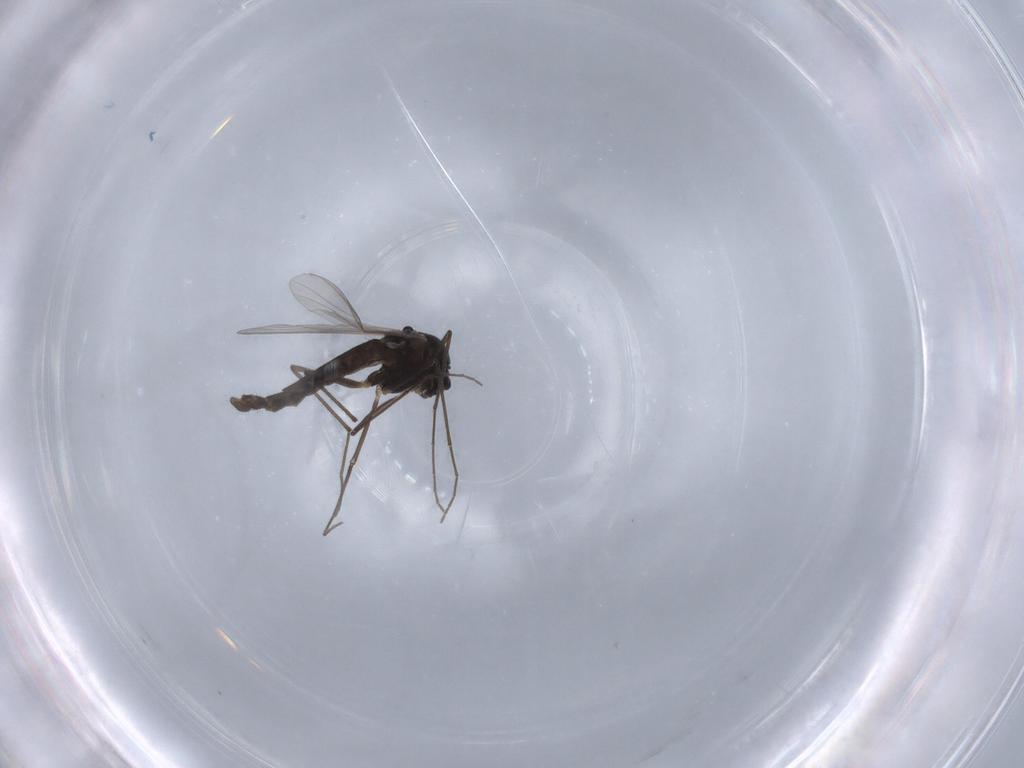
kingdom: Animalia
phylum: Arthropoda
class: Insecta
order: Diptera
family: Chironomidae
